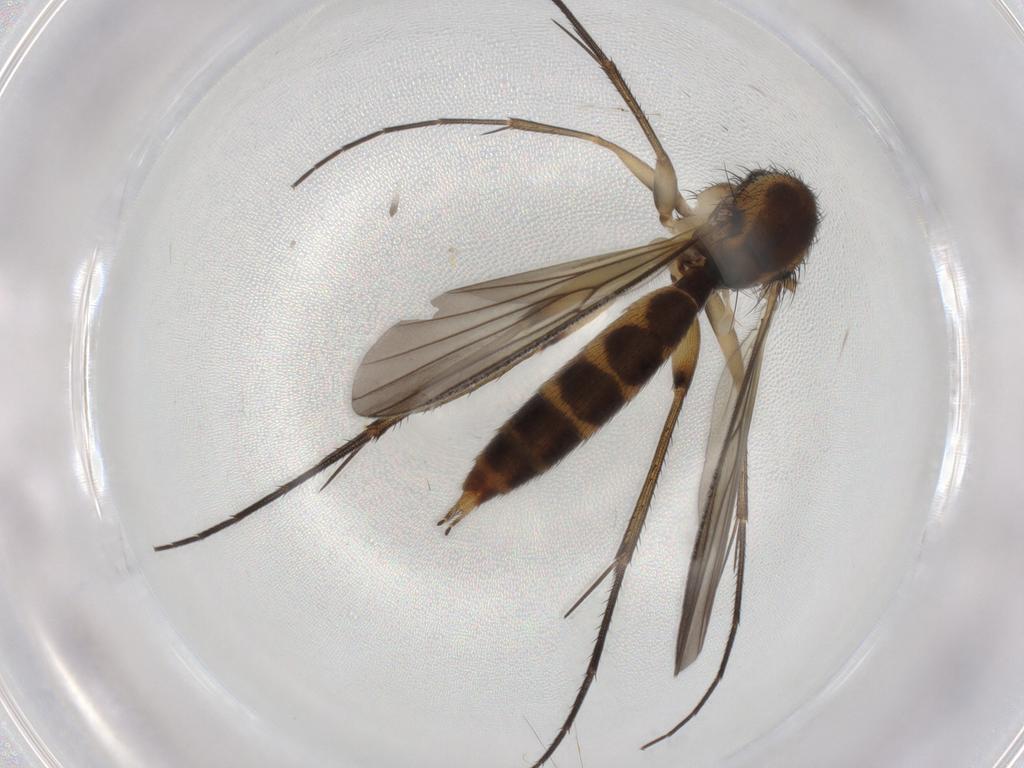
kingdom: Animalia
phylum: Arthropoda
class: Insecta
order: Diptera
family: Mycetophilidae
